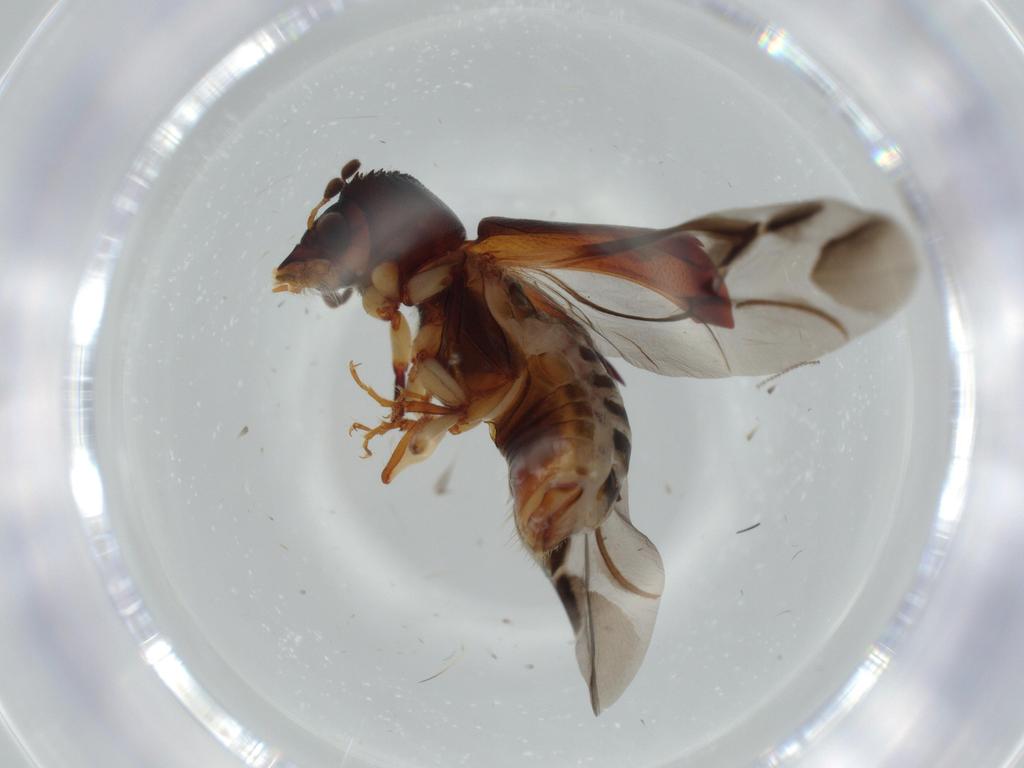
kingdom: Animalia
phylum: Arthropoda
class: Insecta
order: Coleoptera
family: Bostrichidae
